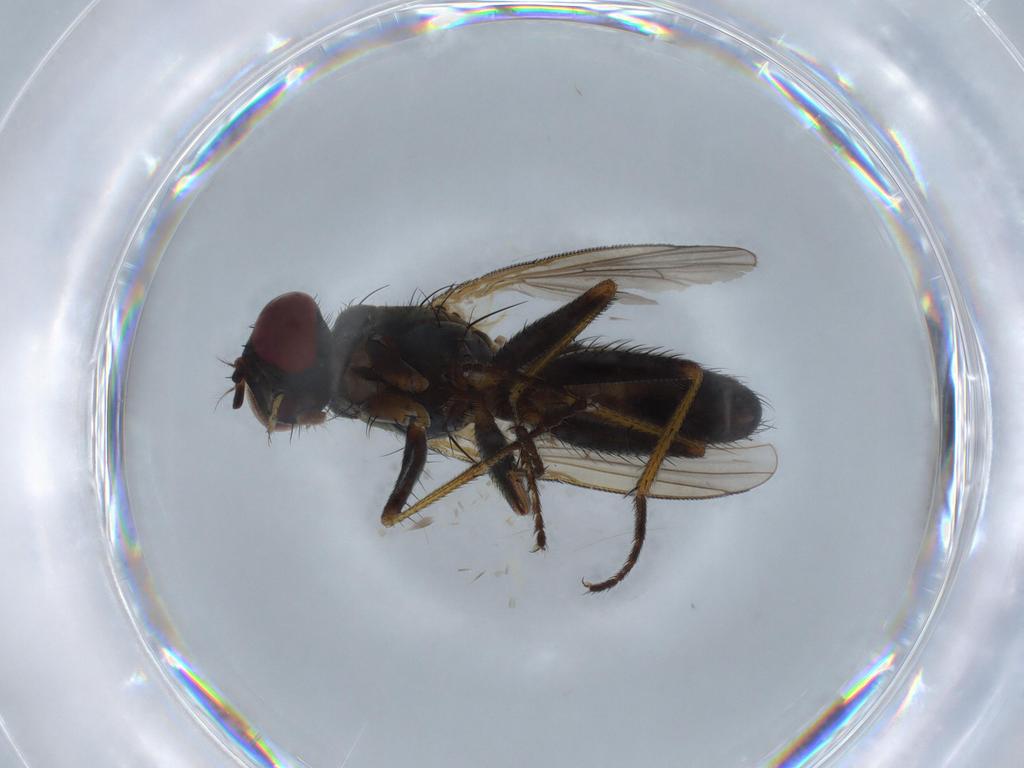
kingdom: Animalia
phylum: Arthropoda
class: Insecta
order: Diptera
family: Muscidae
